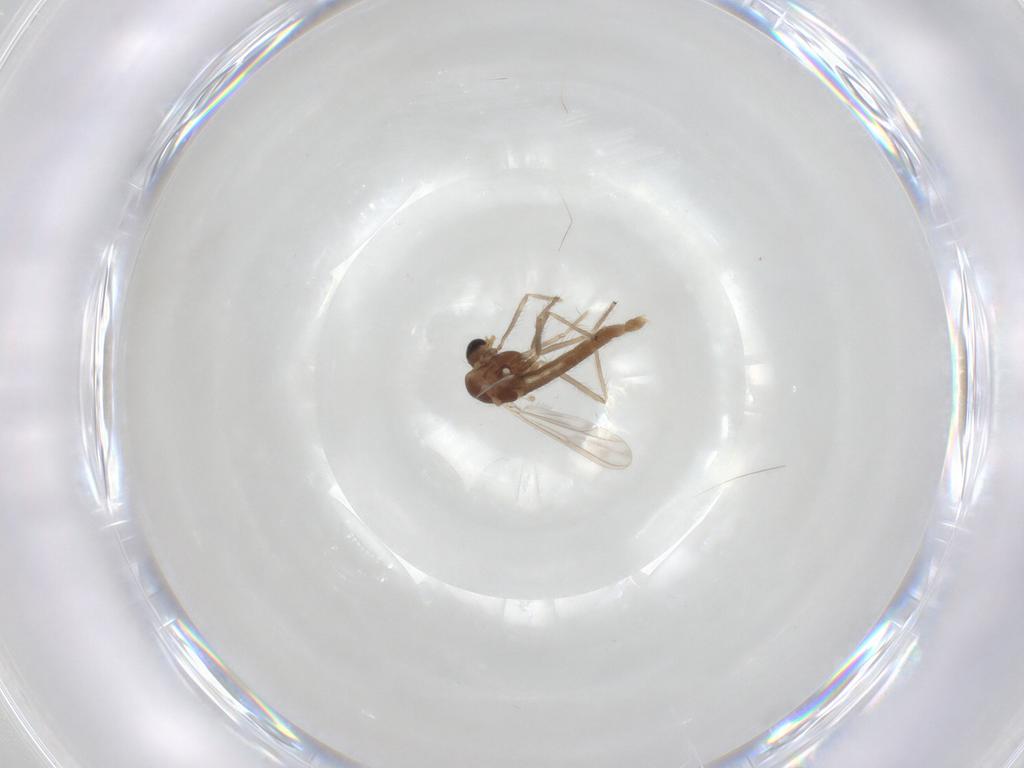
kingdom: Animalia
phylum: Arthropoda
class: Insecta
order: Diptera
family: Chironomidae
